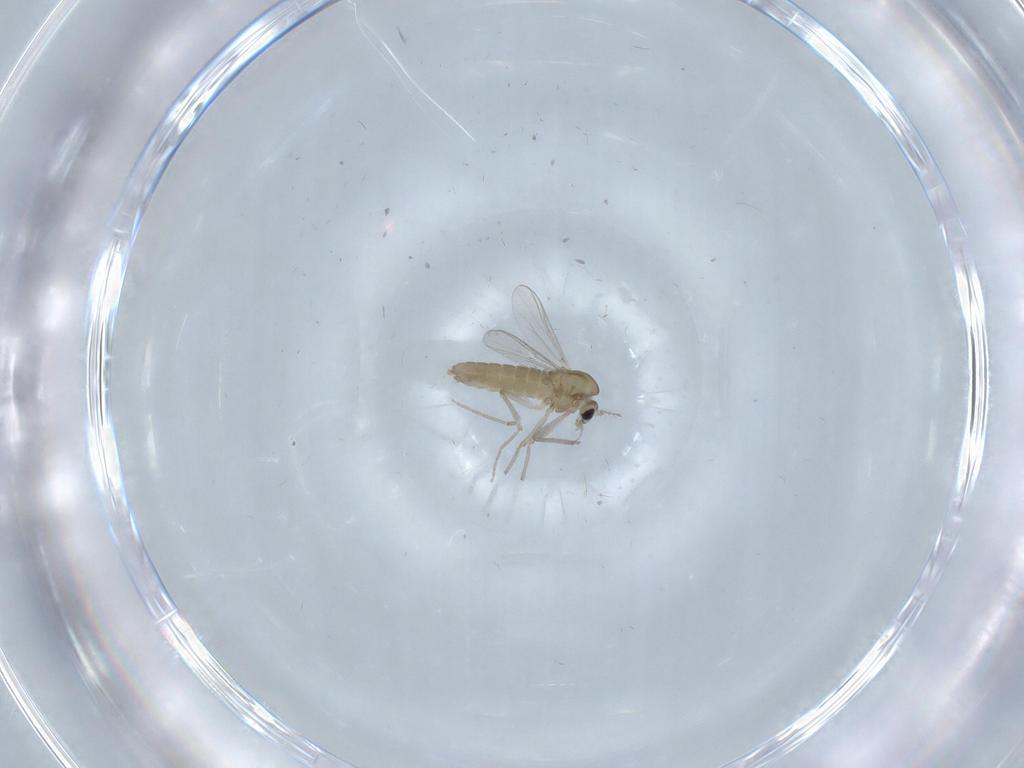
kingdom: Animalia
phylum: Arthropoda
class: Insecta
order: Diptera
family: Chironomidae
